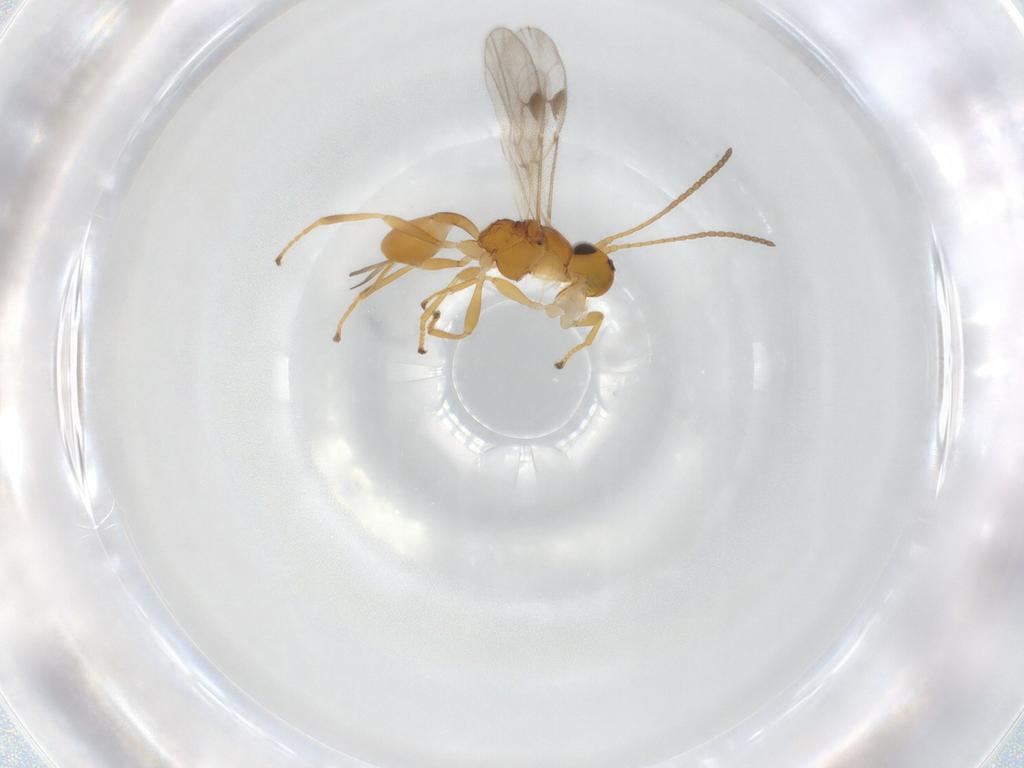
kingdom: Animalia
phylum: Arthropoda
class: Insecta
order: Hymenoptera
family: Braconidae
